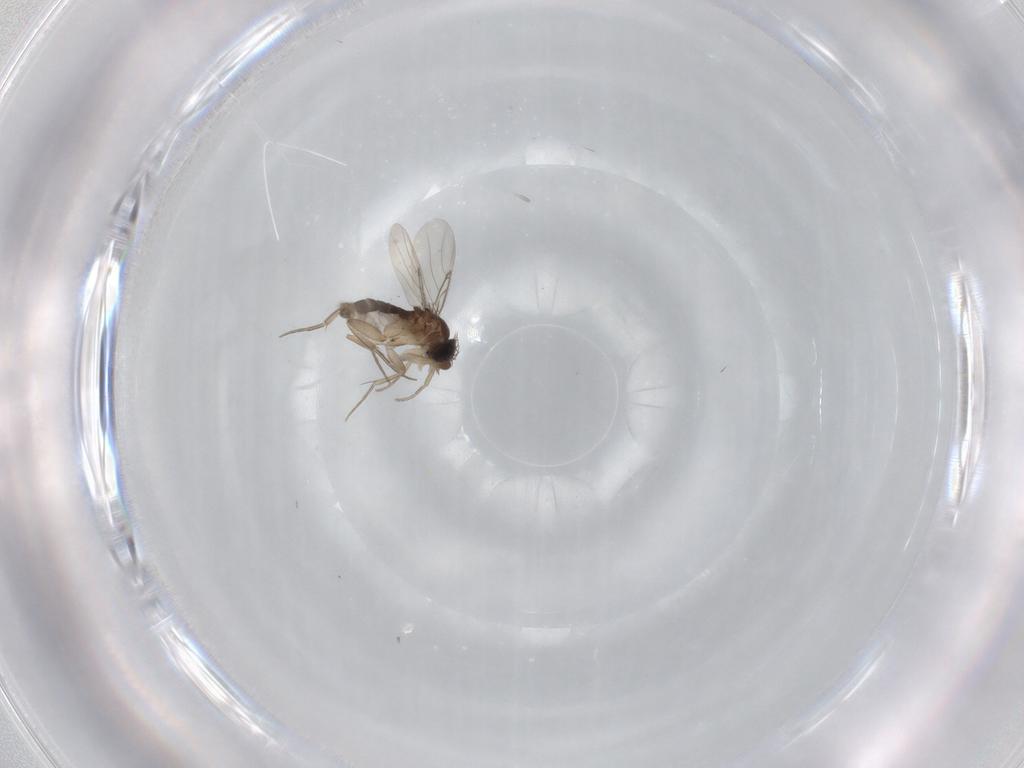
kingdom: Animalia
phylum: Arthropoda
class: Insecta
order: Diptera
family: Phoridae
